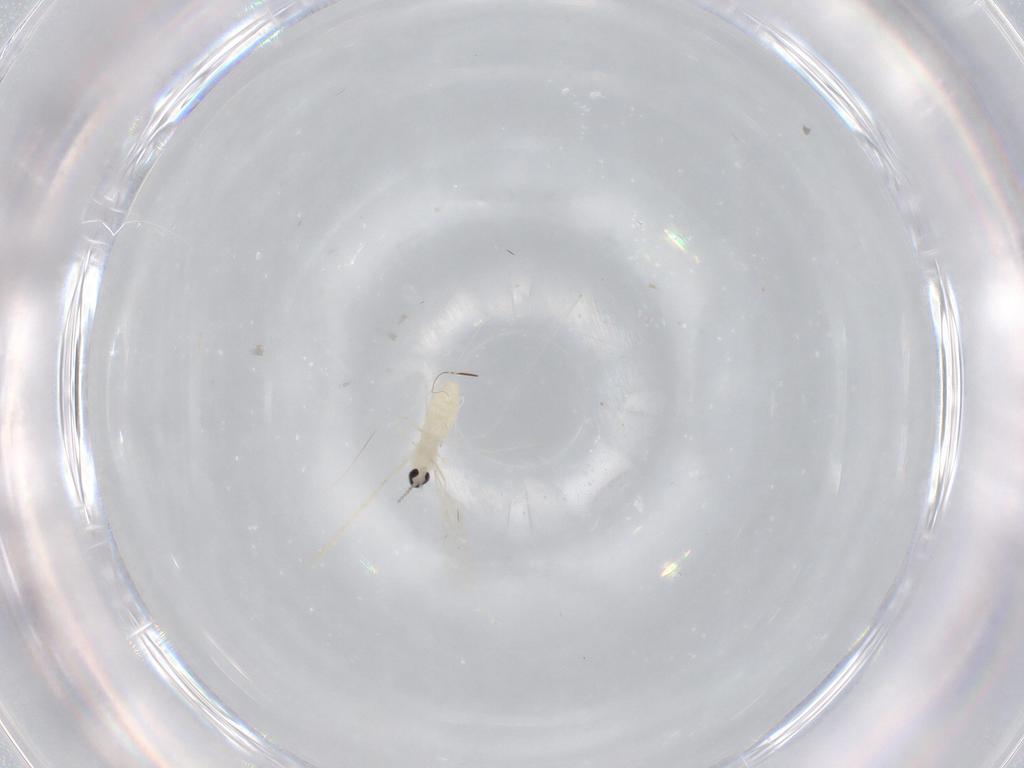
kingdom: Animalia
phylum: Arthropoda
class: Insecta
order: Diptera
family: Cecidomyiidae
